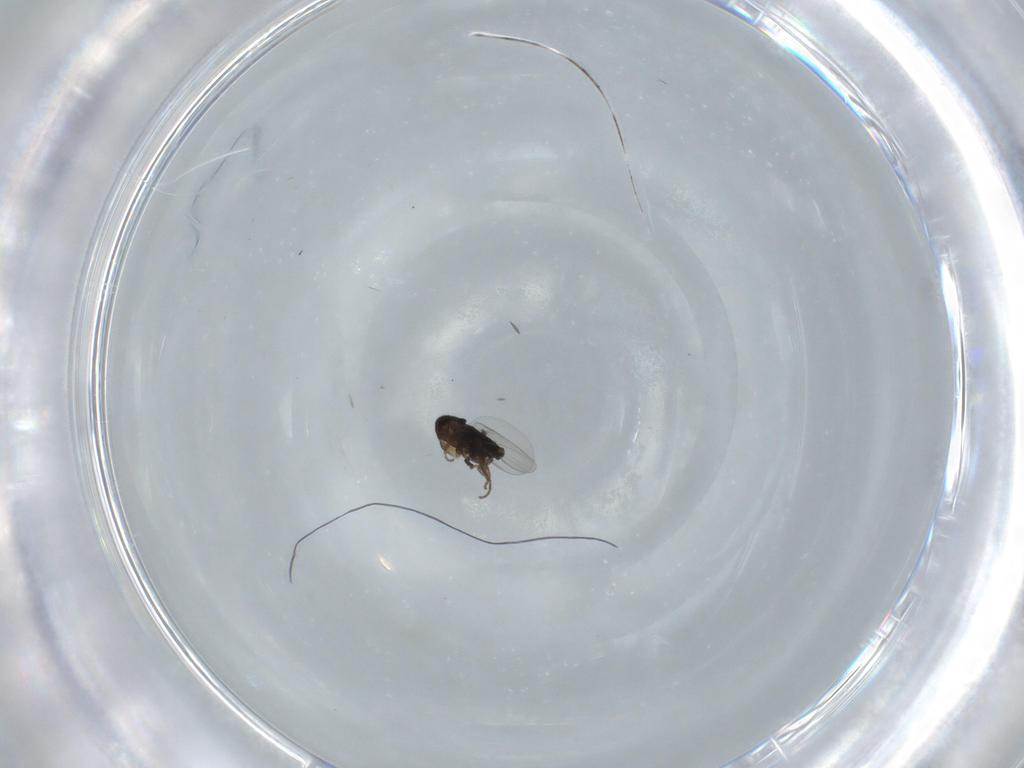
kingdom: Animalia
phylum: Arthropoda
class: Insecta
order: Diptera
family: Phoridae
